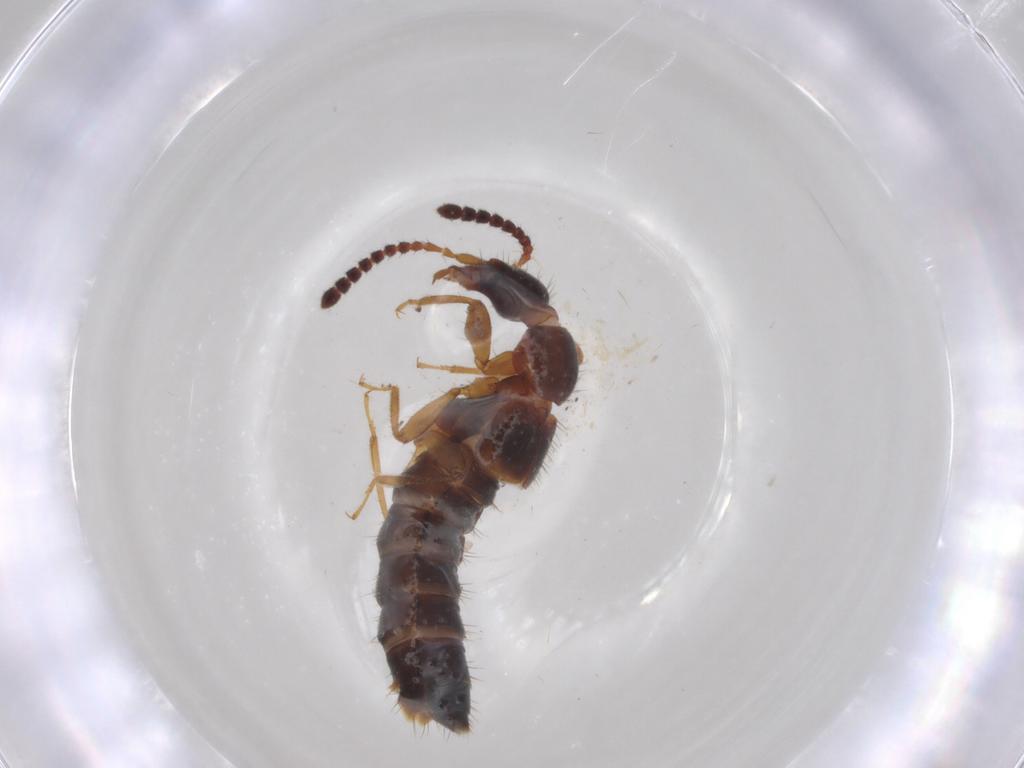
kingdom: Animalia
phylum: Arthropoda
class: Insecta
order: Coleoptera
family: Staphylinidae
